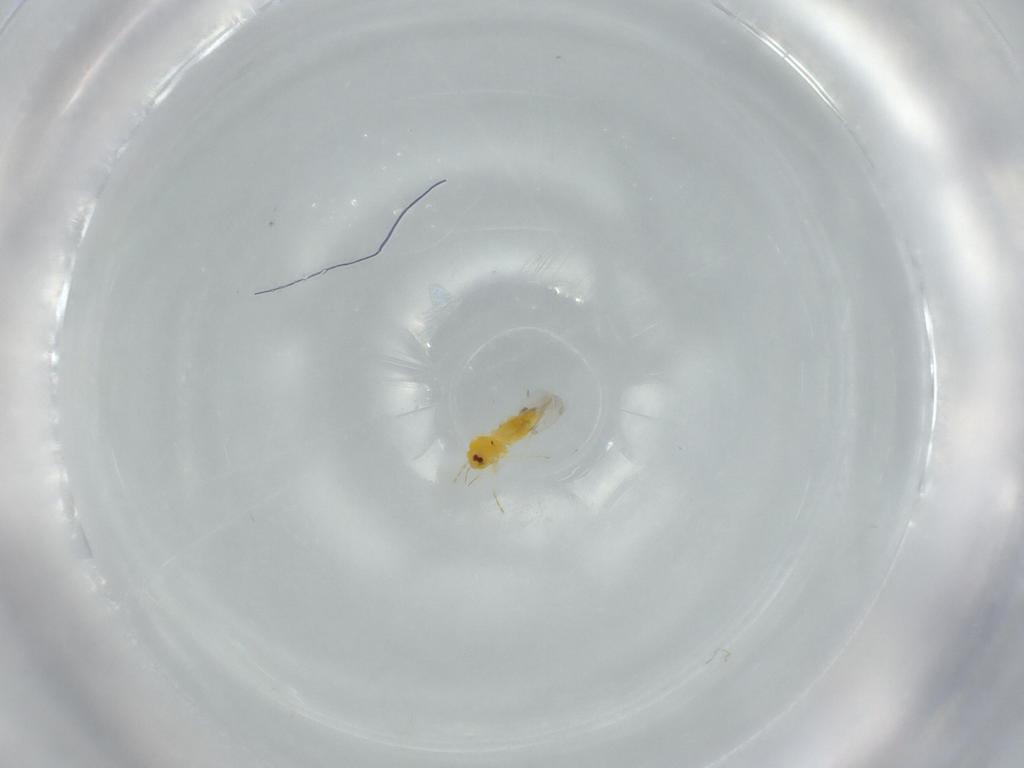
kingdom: Animalia
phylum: Arthropoda
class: Insecta
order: Hemiptera
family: Aleyrodidae
